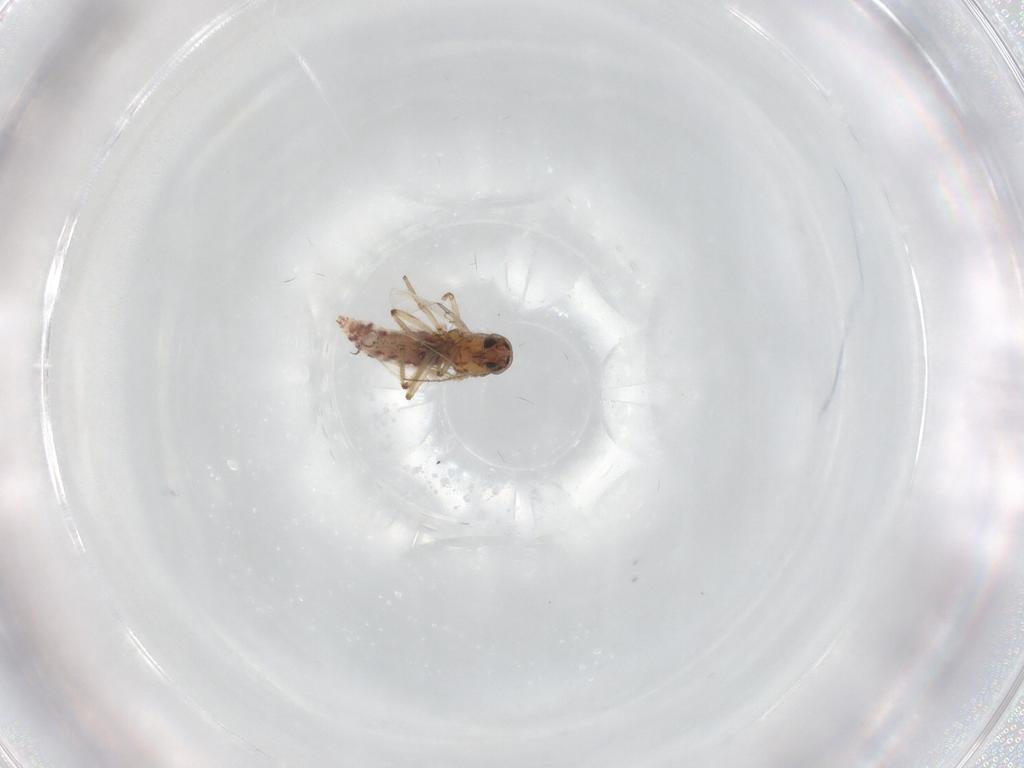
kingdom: Animalia
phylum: Arthropoda
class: Insecta
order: Diptera
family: Ceratopogonidae
